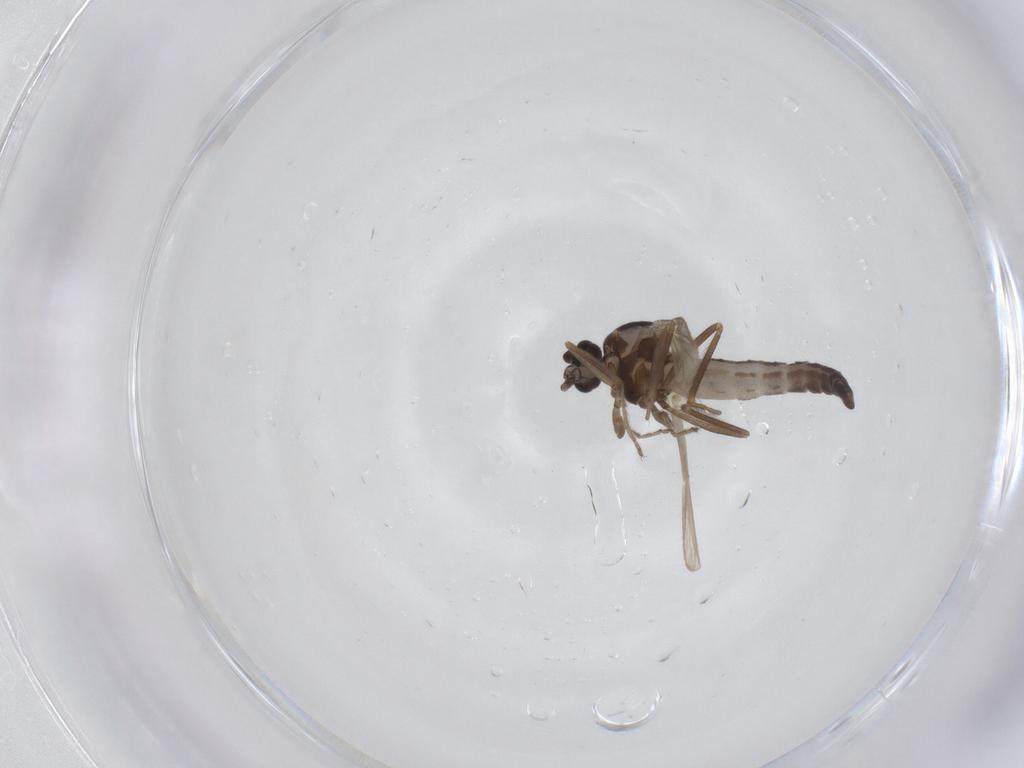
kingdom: Animalia
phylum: Arthropoda
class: Insecta
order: Diptera
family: Ceratopogonidae
